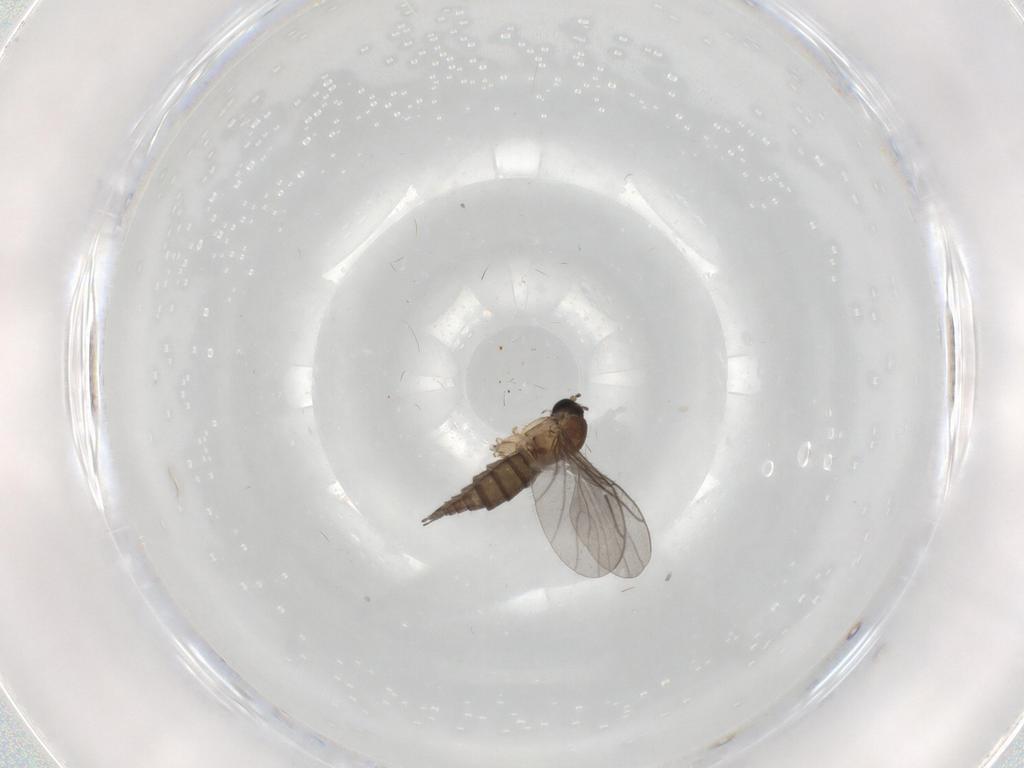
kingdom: Animalia
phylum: Arthropoda
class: Insecta
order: Diptera
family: Sciaridae
